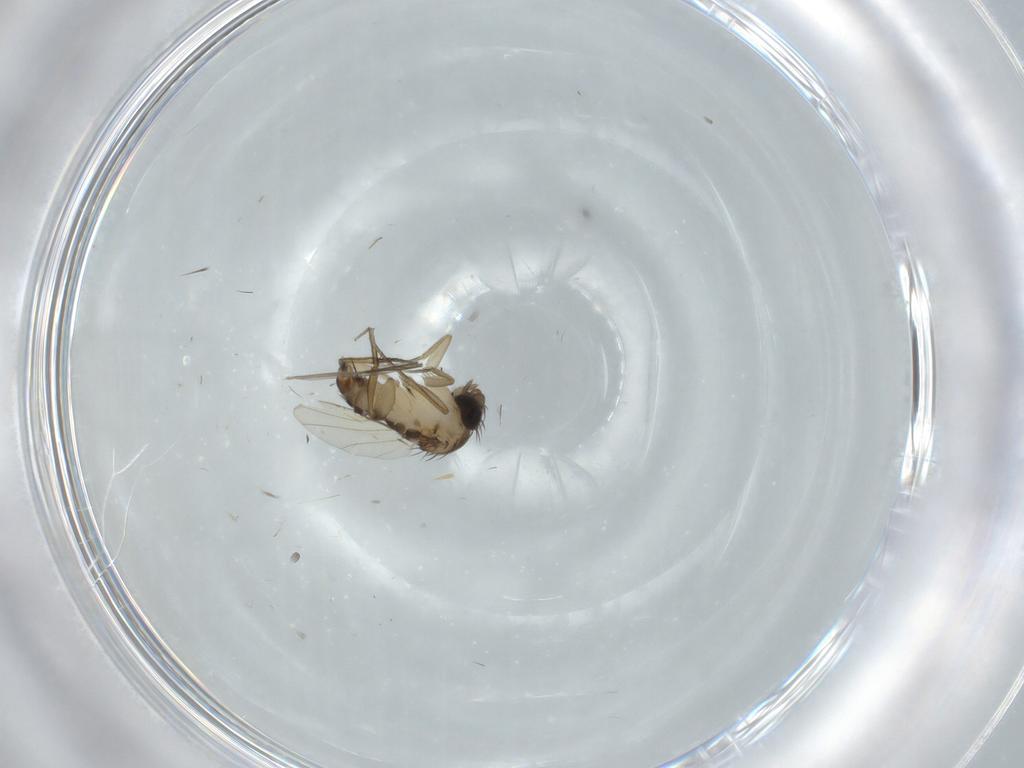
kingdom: Animalia
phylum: Arthropoda
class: Insecta
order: Diptera
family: Phoridae
